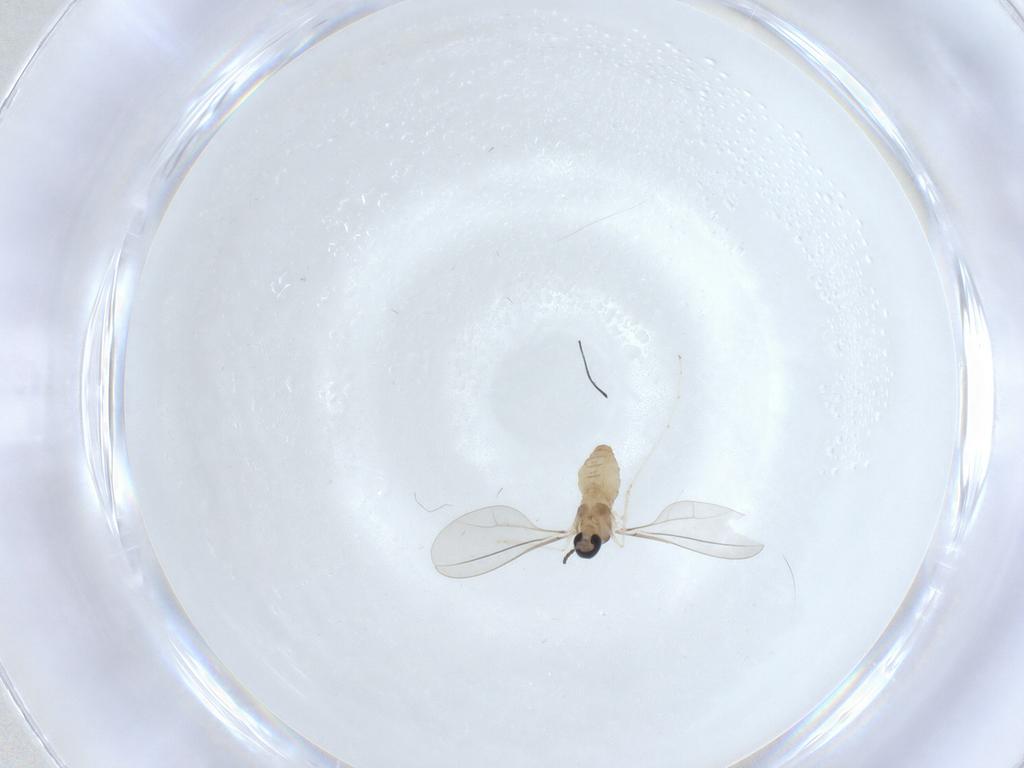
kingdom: Animalia
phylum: Arthropoda
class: Insecta
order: Diptera
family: Cecidomyiidae
